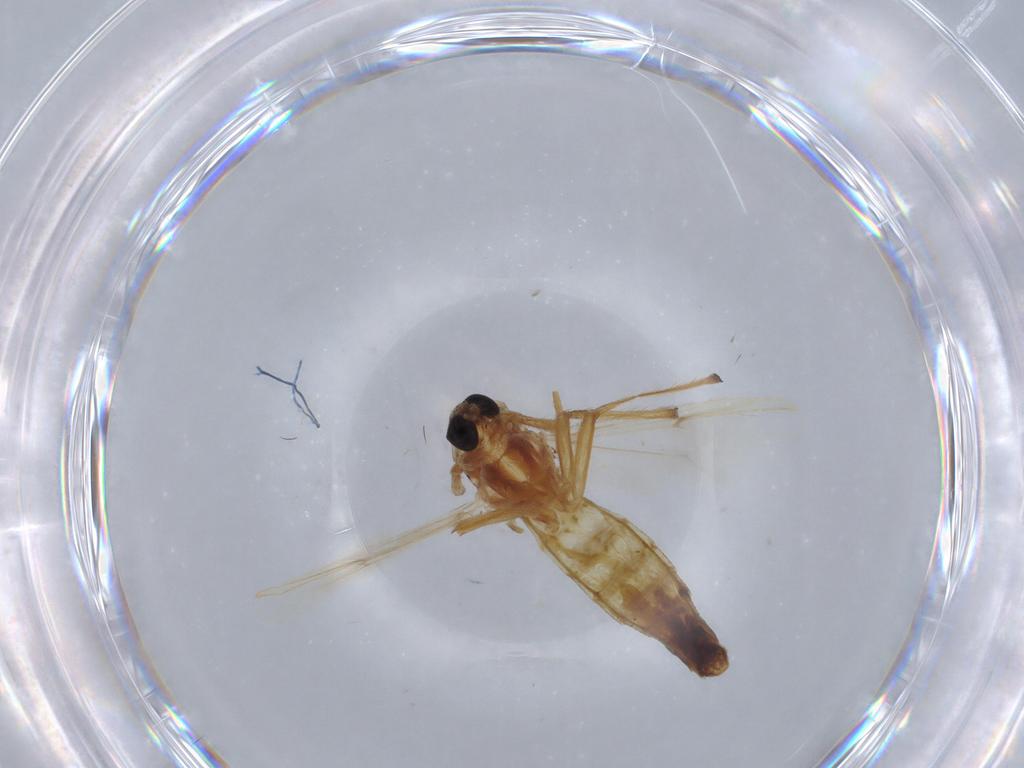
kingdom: Animalia
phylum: Arthropoda
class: Insecta
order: Diptera
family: Chironomidae
